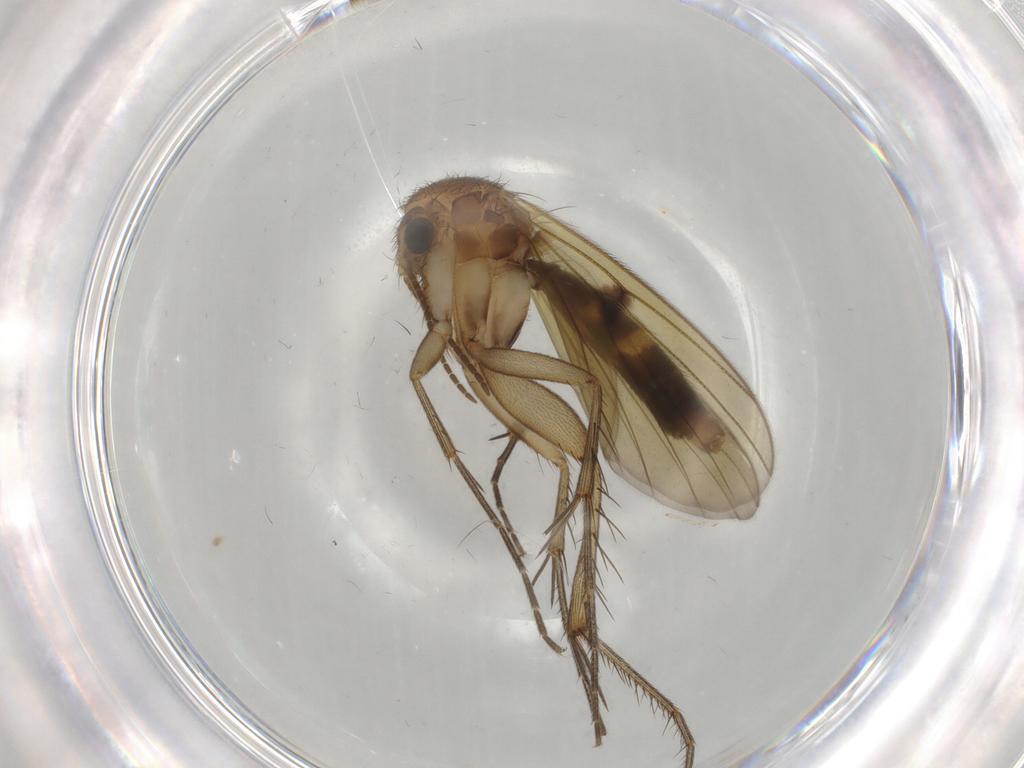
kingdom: Animalia
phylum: Arthropoda
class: Insecta
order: Diptera
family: Mycetophilidae
